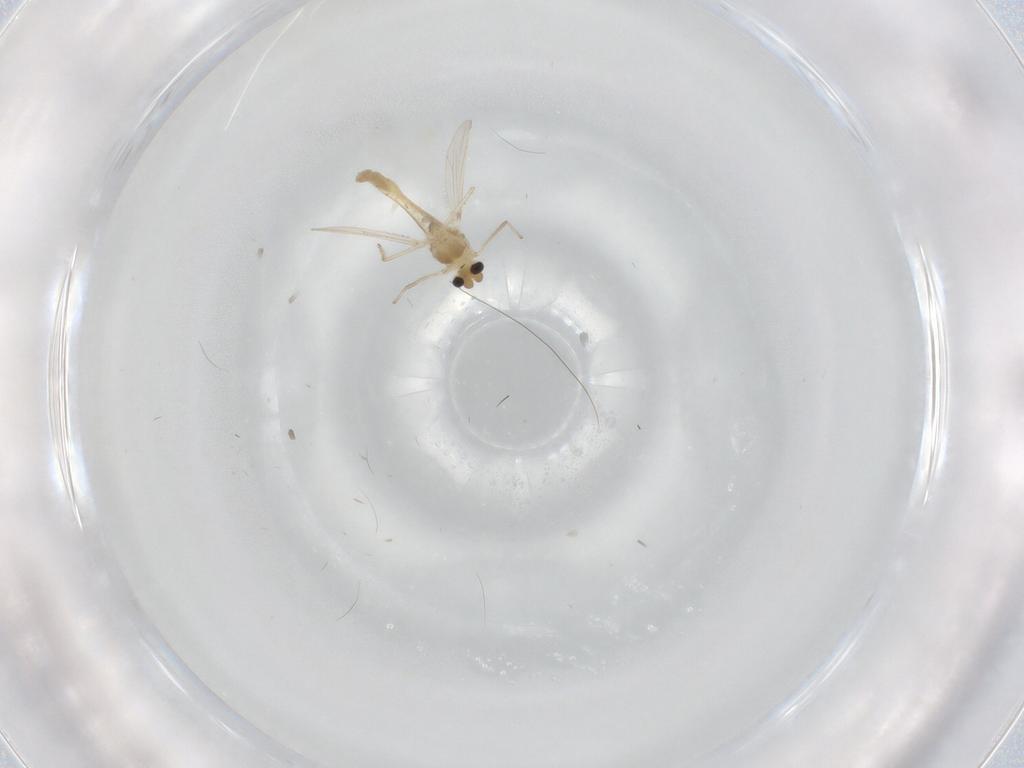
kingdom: Animalia
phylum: Arthropoda
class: Insecta
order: Diptera
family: Chironomidae
